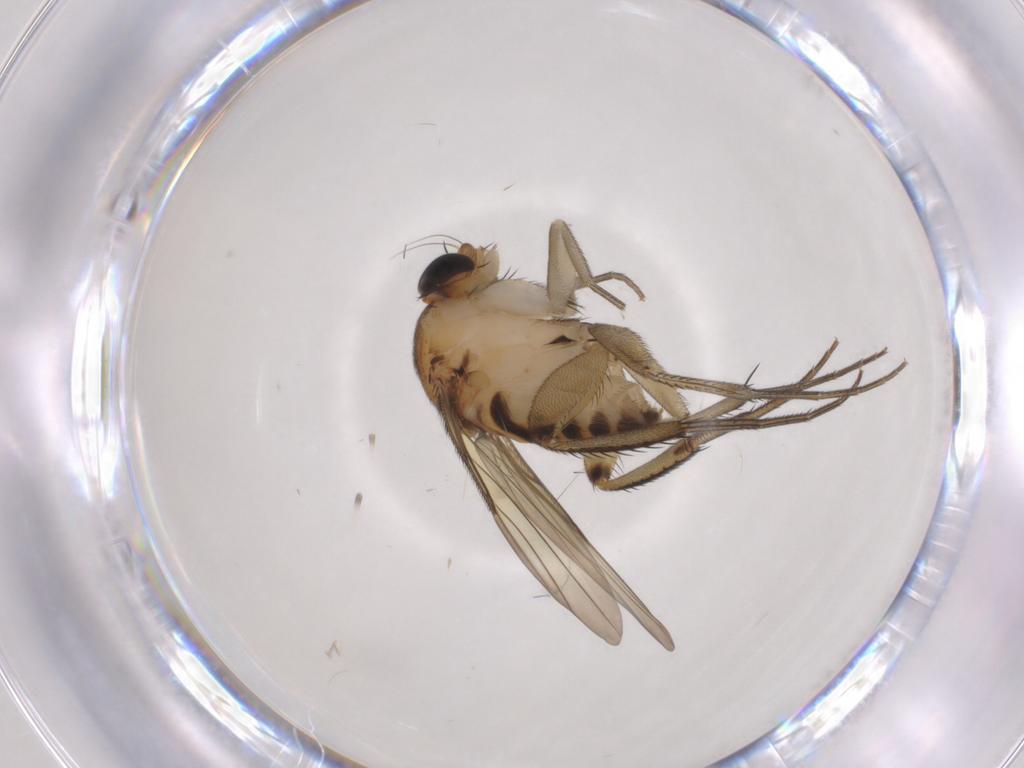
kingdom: Animalia
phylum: Arthropoda
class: Insecta
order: Diptera
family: Phoridae
